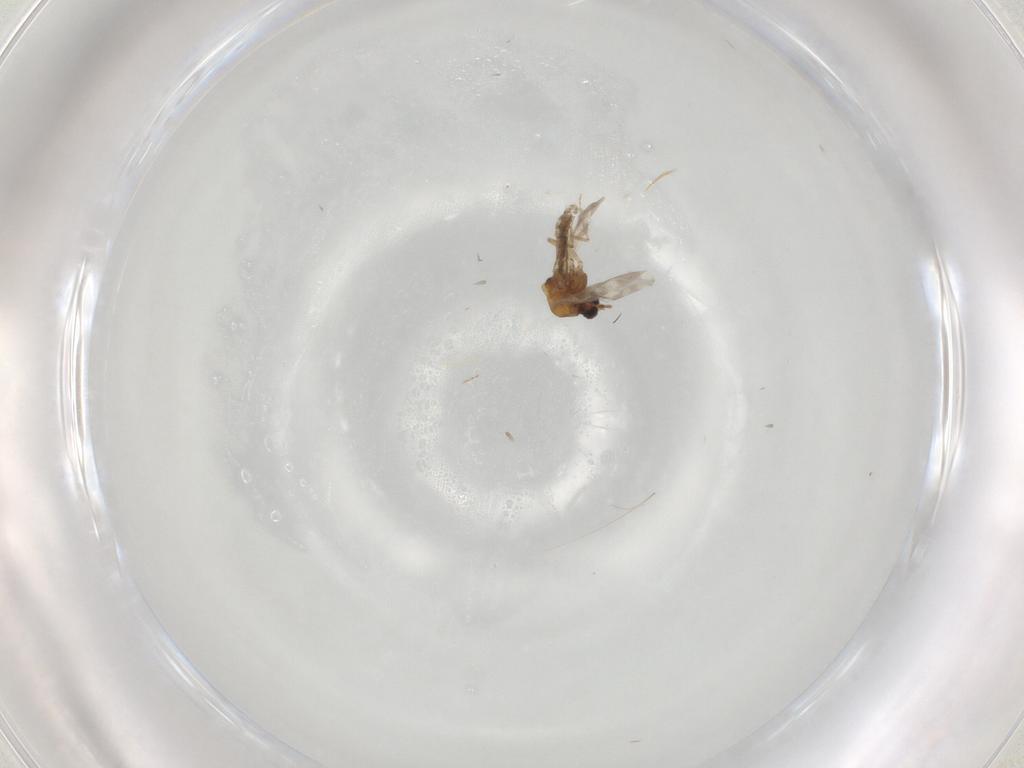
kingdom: Animalia
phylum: Arthropoda
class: Insecta
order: Diptera
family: Ceratopogonidae
